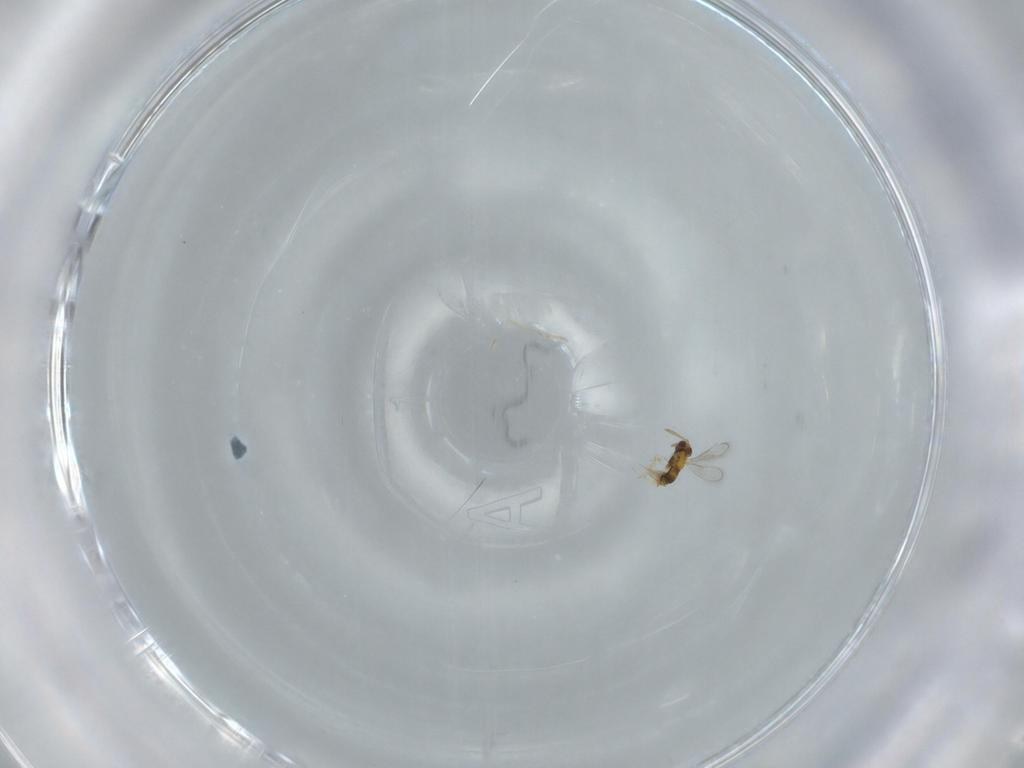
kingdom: Animalia
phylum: Arthropoda
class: Insecta
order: Hymenoptera
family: Aphelinidae
